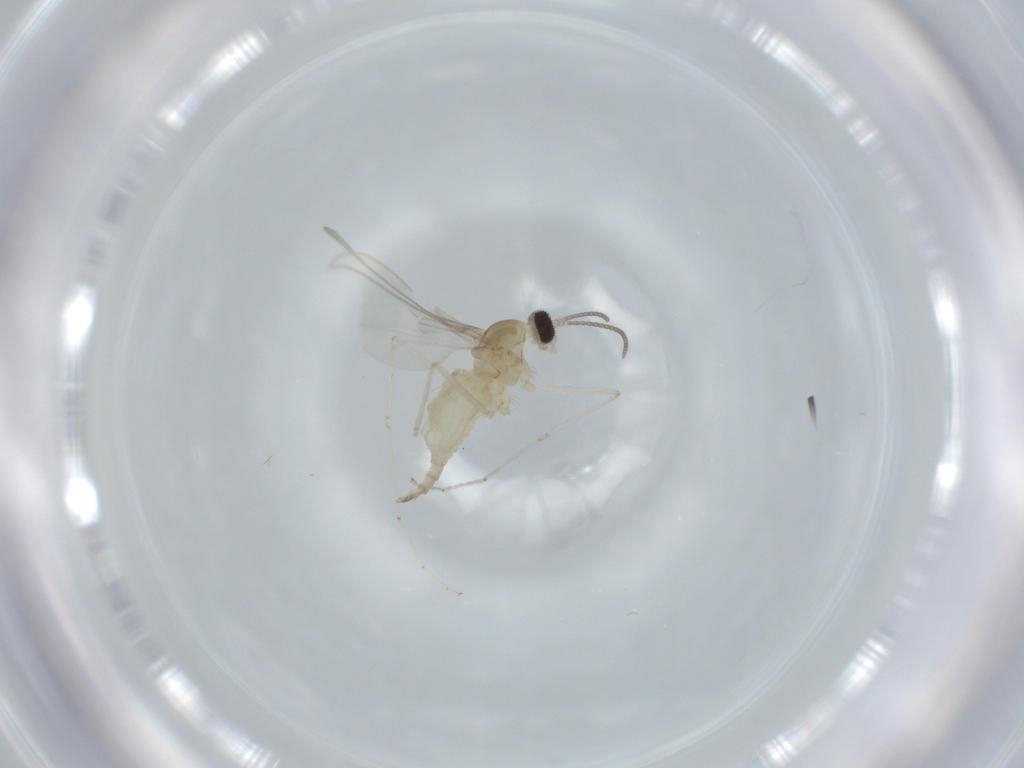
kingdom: Animalia
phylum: Arthropoda
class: Insecta
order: Diptera
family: Cecidomyiidae
